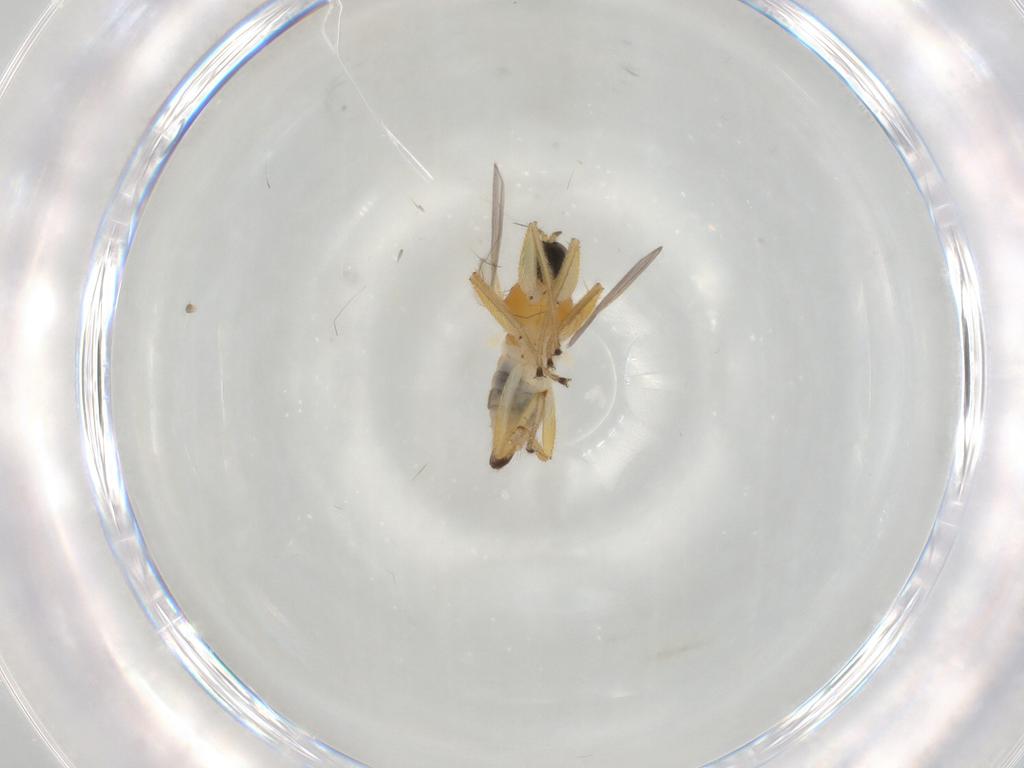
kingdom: Animalia
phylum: Arthropoda
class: Insecta
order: Diptera
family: Hybotidae
